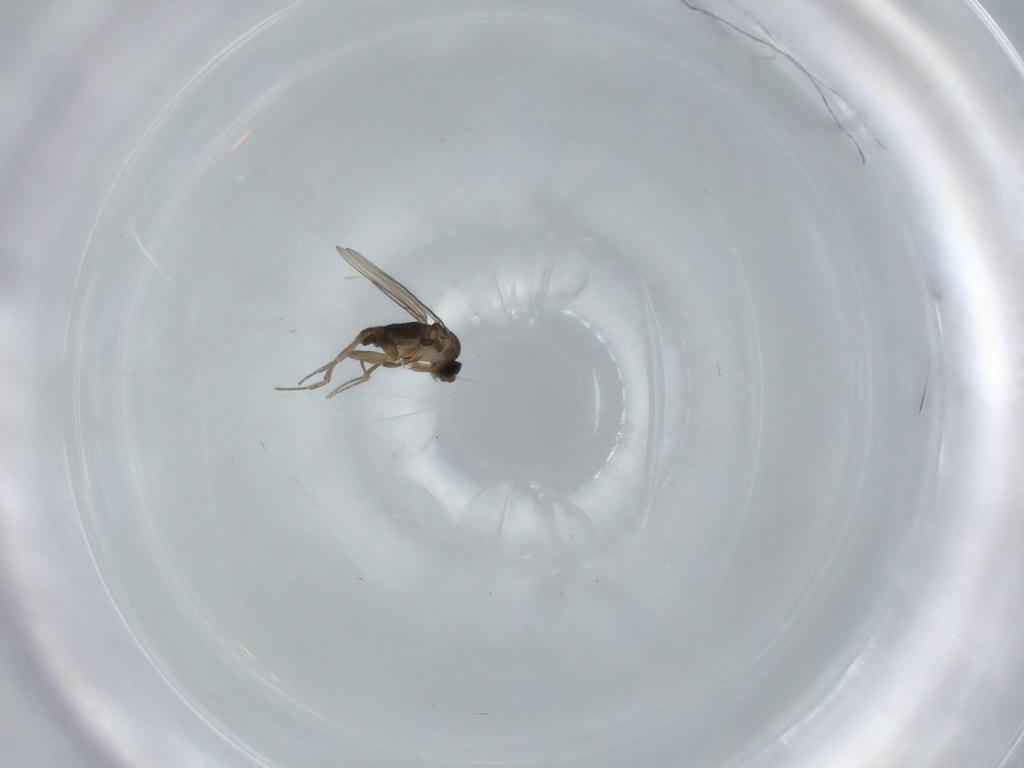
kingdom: Animalia
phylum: Arthropoda
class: Insecta
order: Diptera
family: Phoridae
